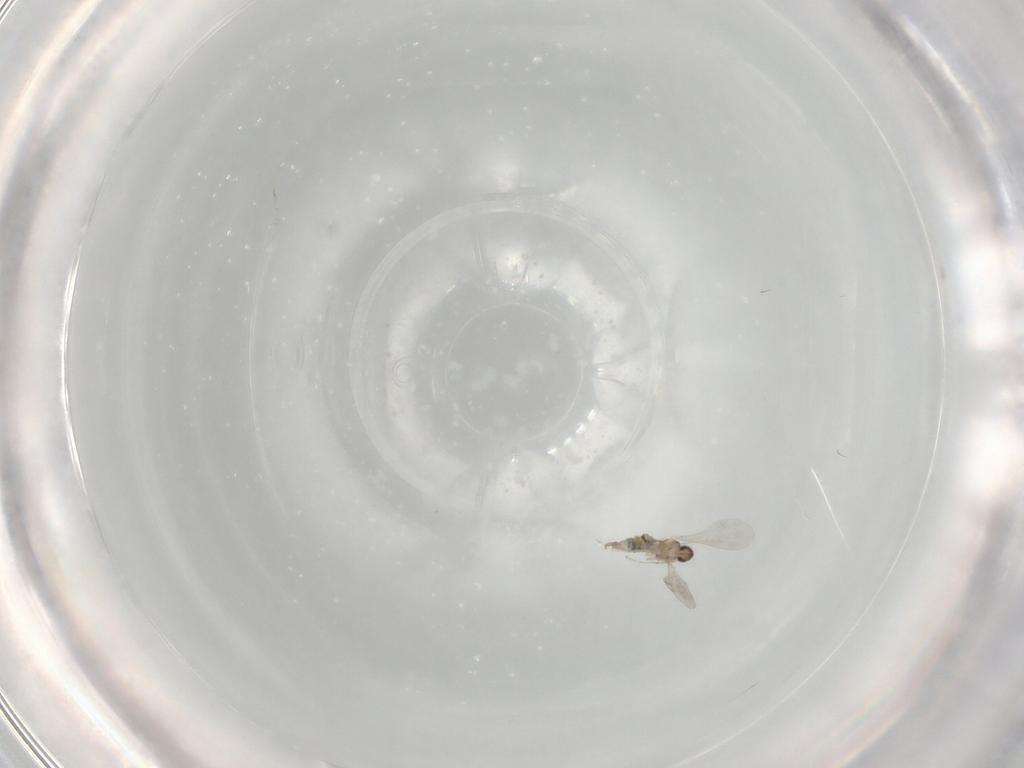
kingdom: Animalia
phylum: Arthropoda
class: Insecta
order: Diptera
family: Cecidomyiidae
